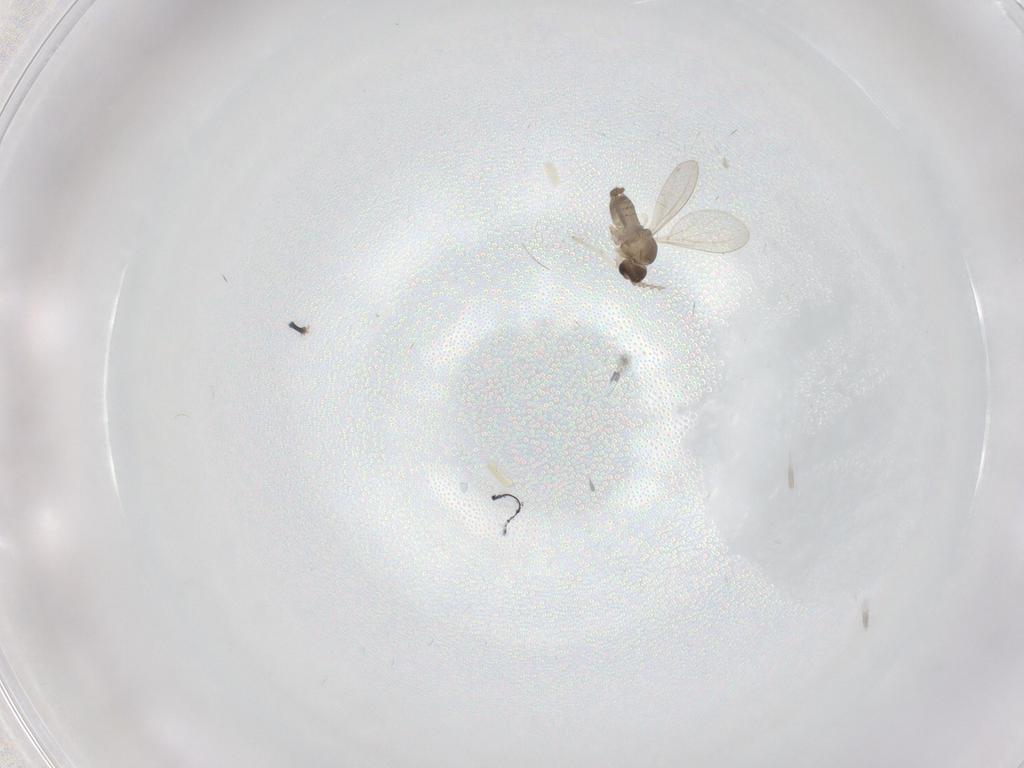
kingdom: Animalia
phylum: Arthropoda
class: Insecta
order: Diptera
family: Cecidomyiidae
